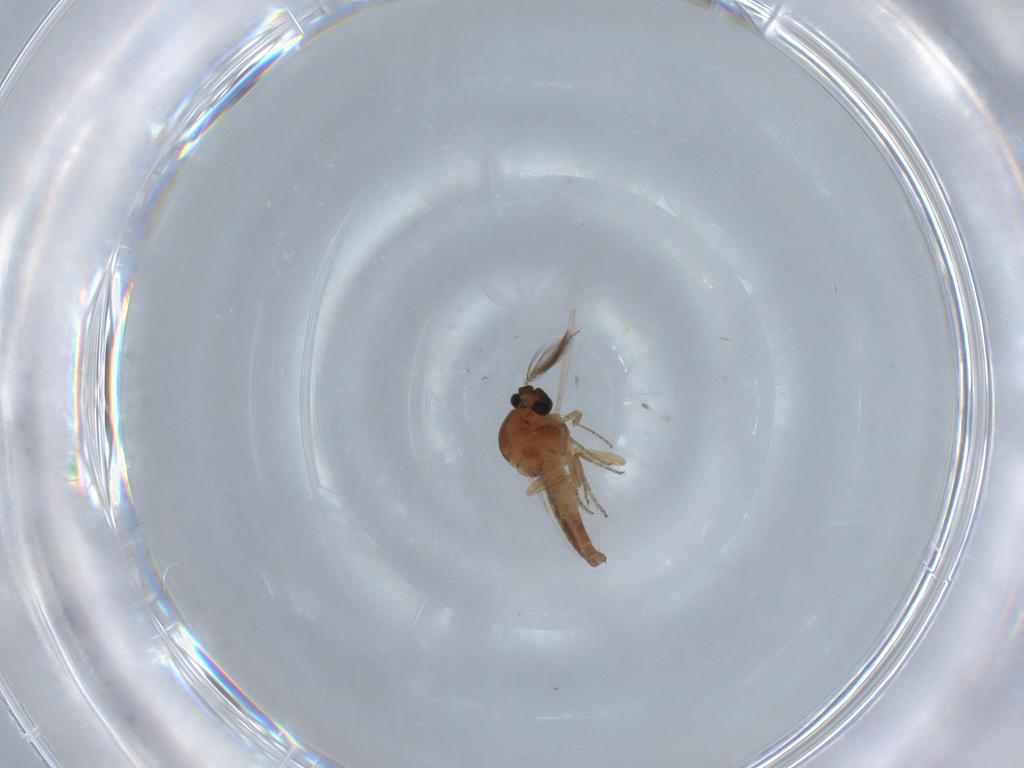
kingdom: Animalia
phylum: Arthropoda
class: Insecta
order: Diptera
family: Ceratopogonidae
